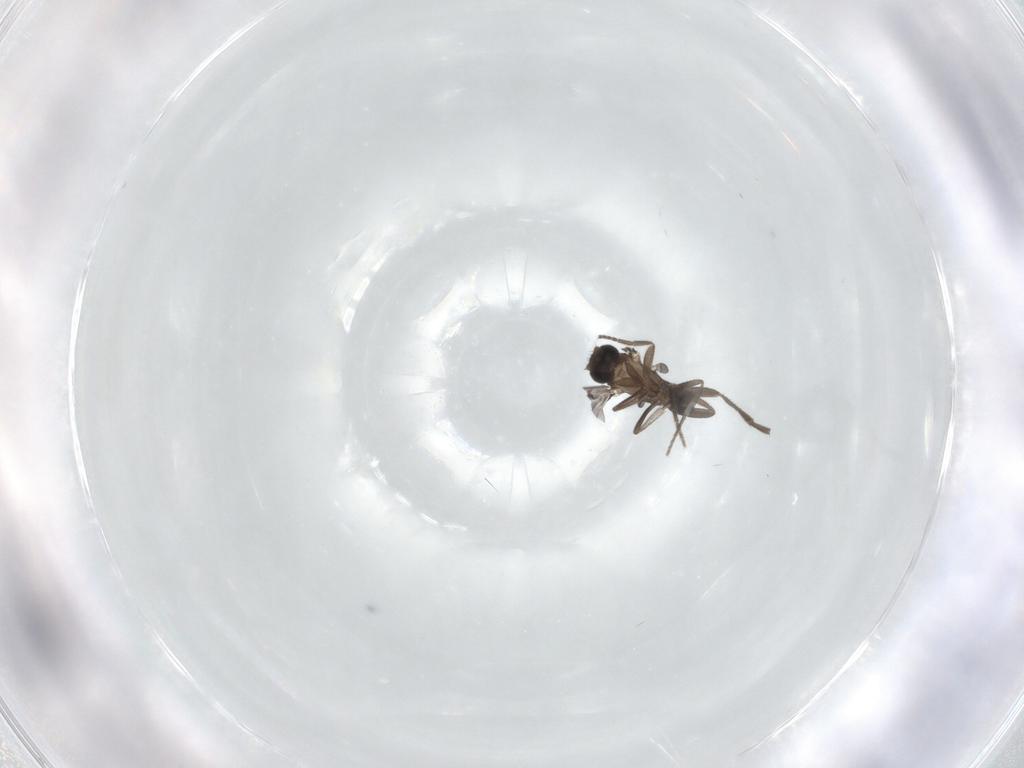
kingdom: Animalia
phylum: Arthropoda
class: Insecta
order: Diptera
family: Phoridae
